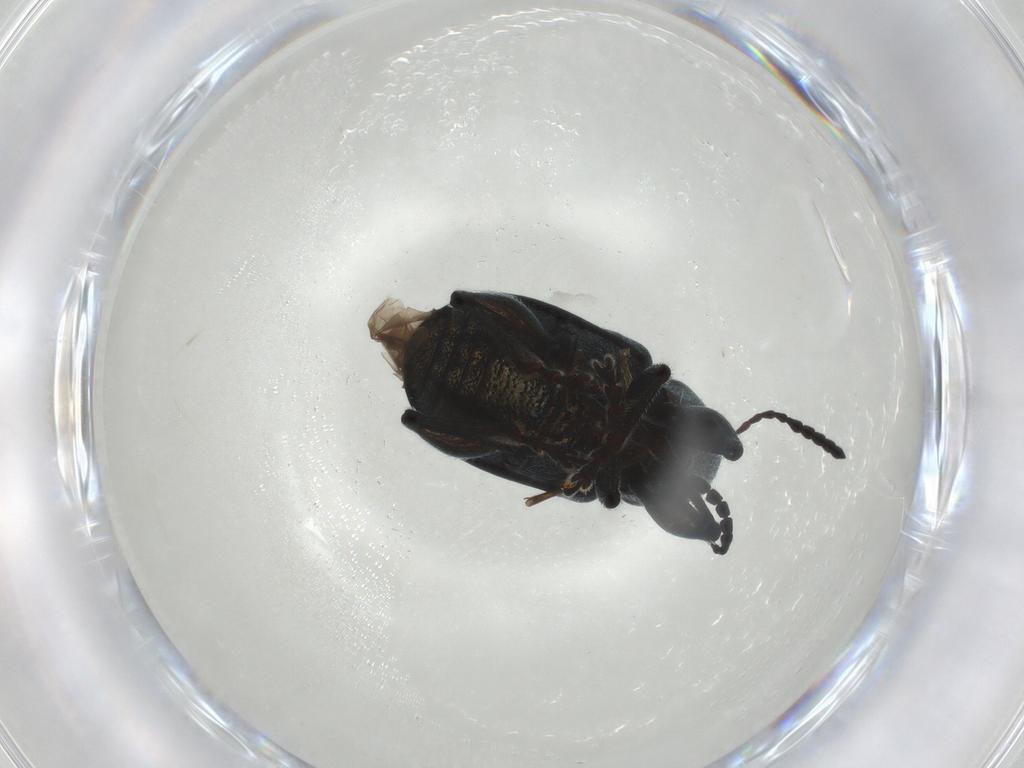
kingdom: Animalia
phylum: Arthropoda
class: Insecta
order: Coleoptera
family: Chrysomelidae
